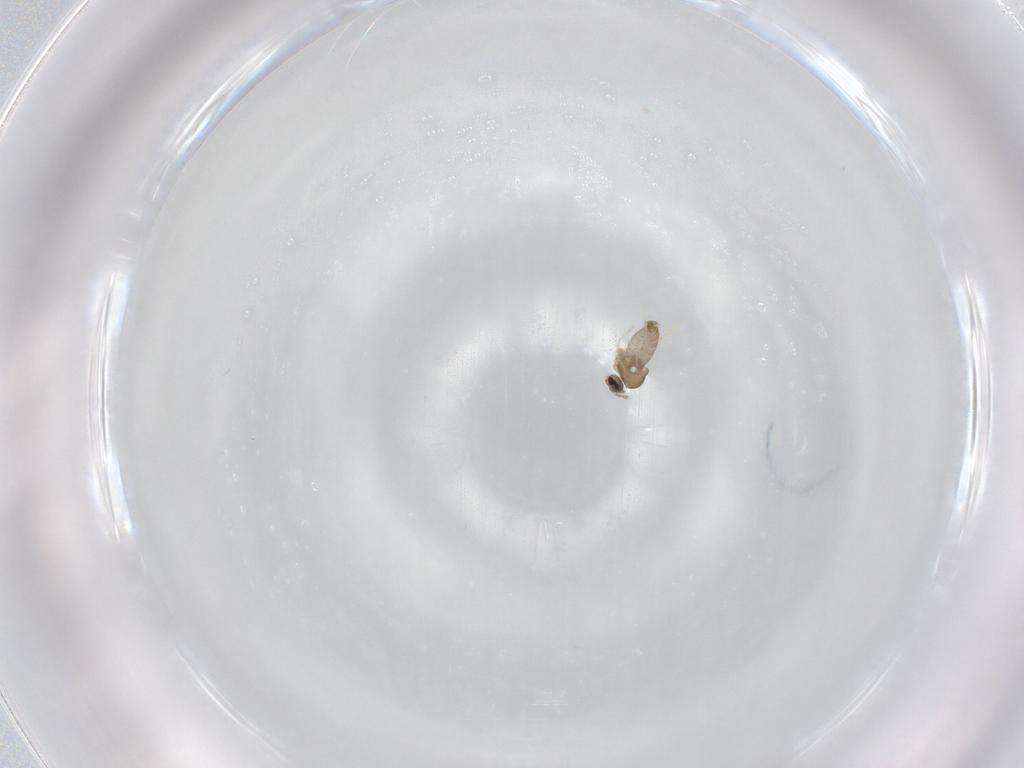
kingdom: Animalia
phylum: Arthropoda
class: Insecta
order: Diptera
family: Cecidomyiidae
